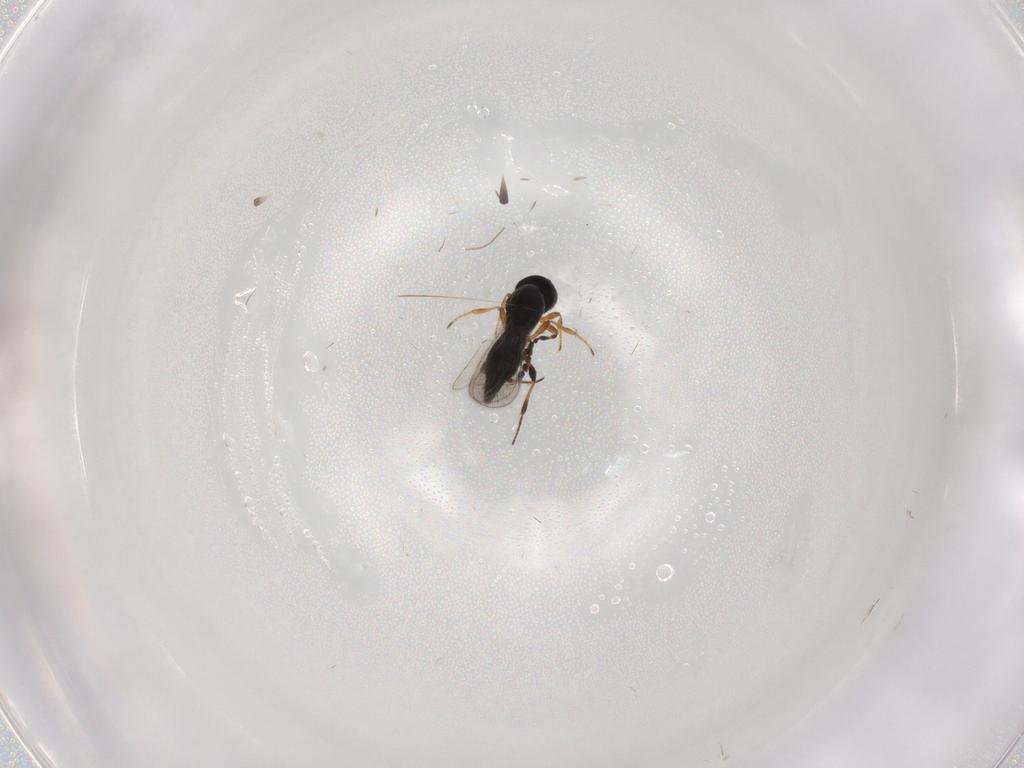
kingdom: Animalia
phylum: Arthropoda
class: Insecta
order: Hymenoptera
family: Platygastridae
